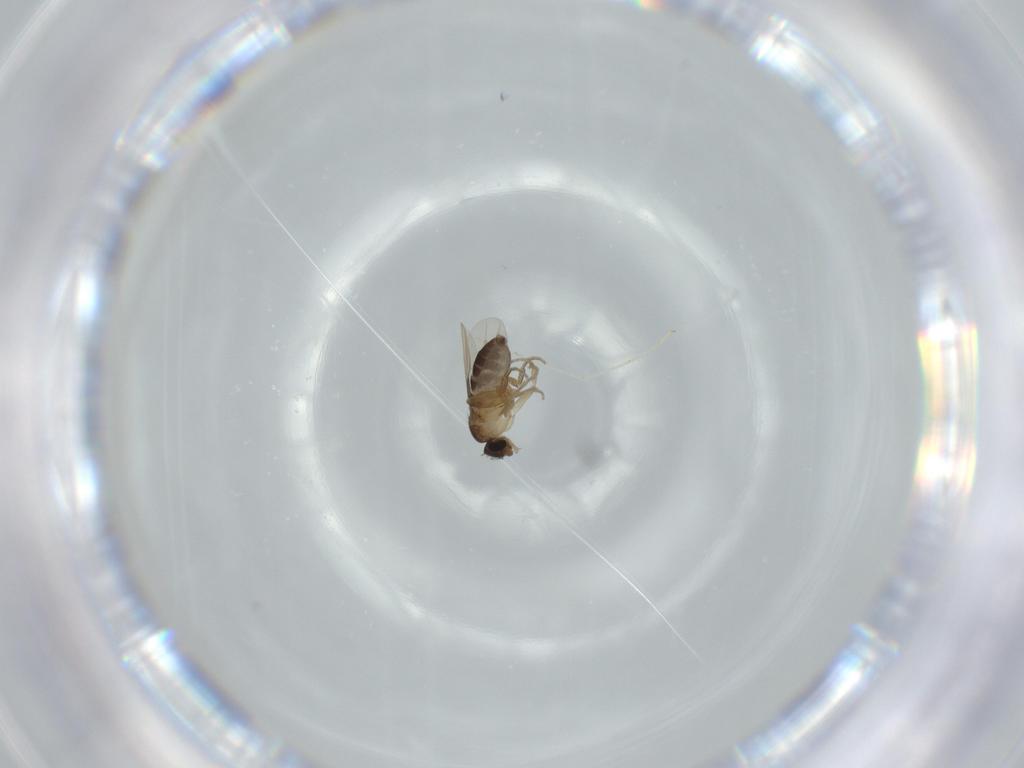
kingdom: Animalia
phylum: Arthropoda
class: Insecta
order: Diptera
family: Phoridae
